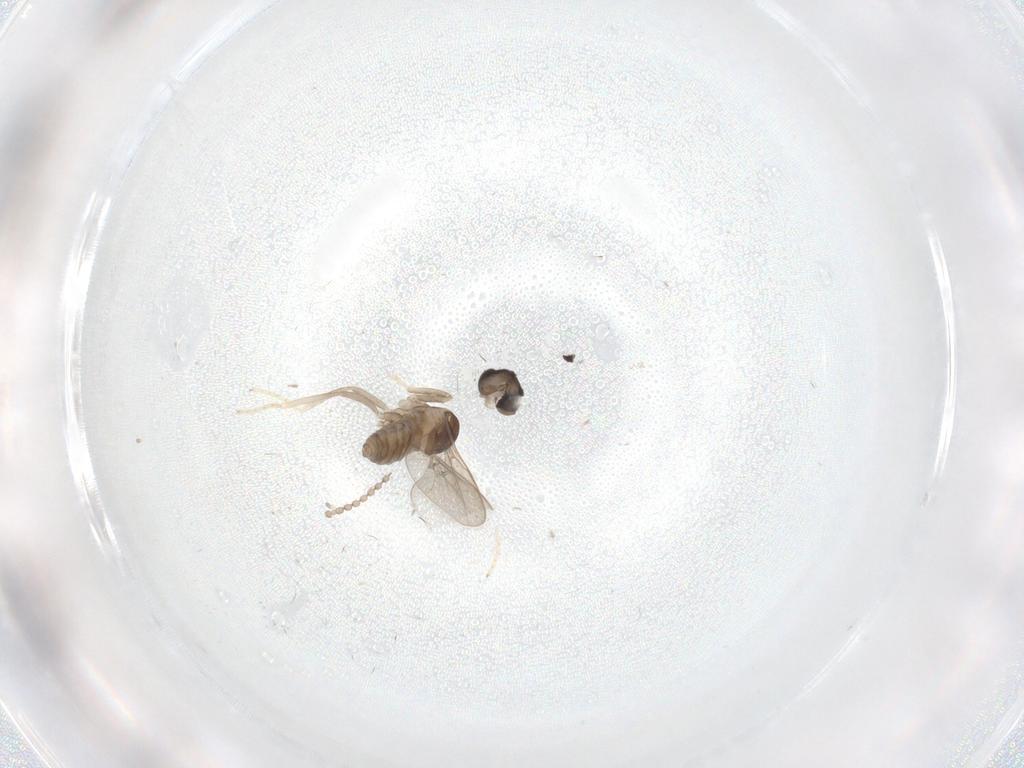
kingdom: Animalia
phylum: Arthropoda
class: Insecta
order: Diptera
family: Cecidomyiidae
